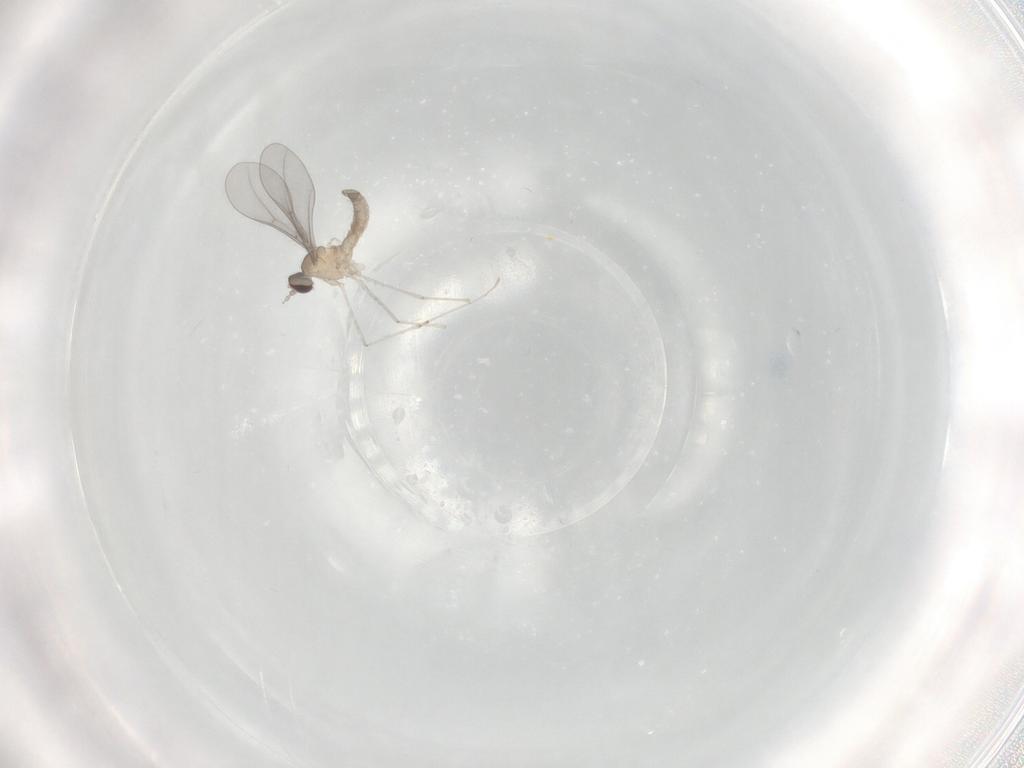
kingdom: Animalia
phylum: Arthropoda
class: Insecta
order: Diptera
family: Cecidomyiidae
